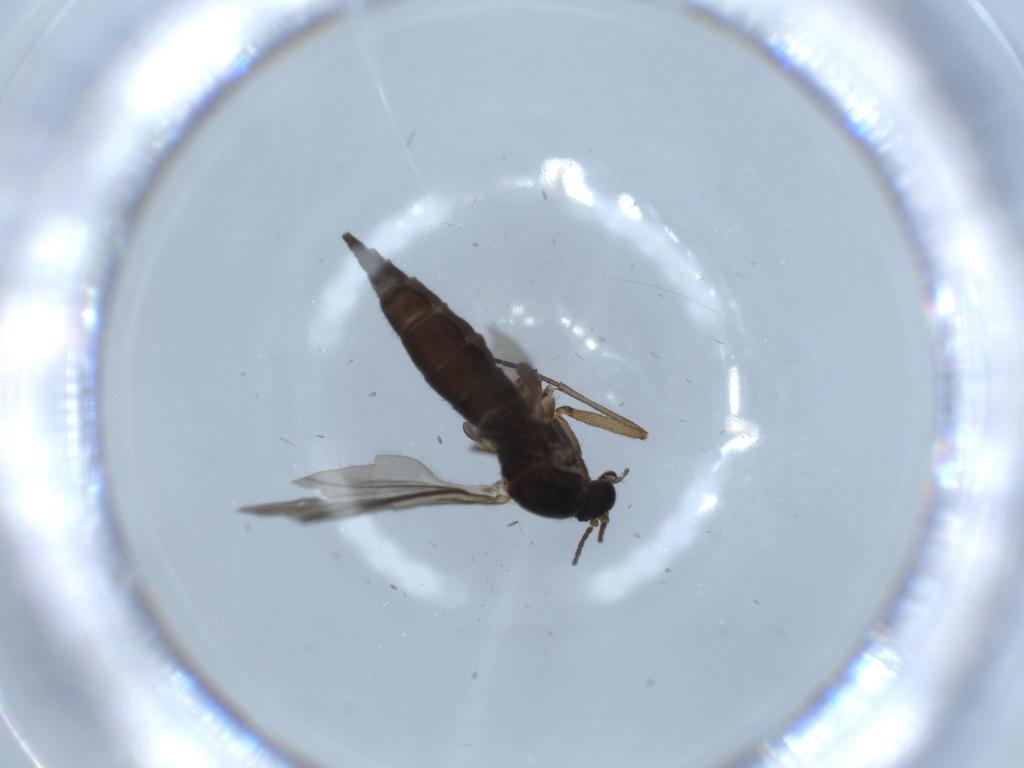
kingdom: Animalia
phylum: Arthropoda
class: Insecta
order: Diptera
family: Sciaridae
